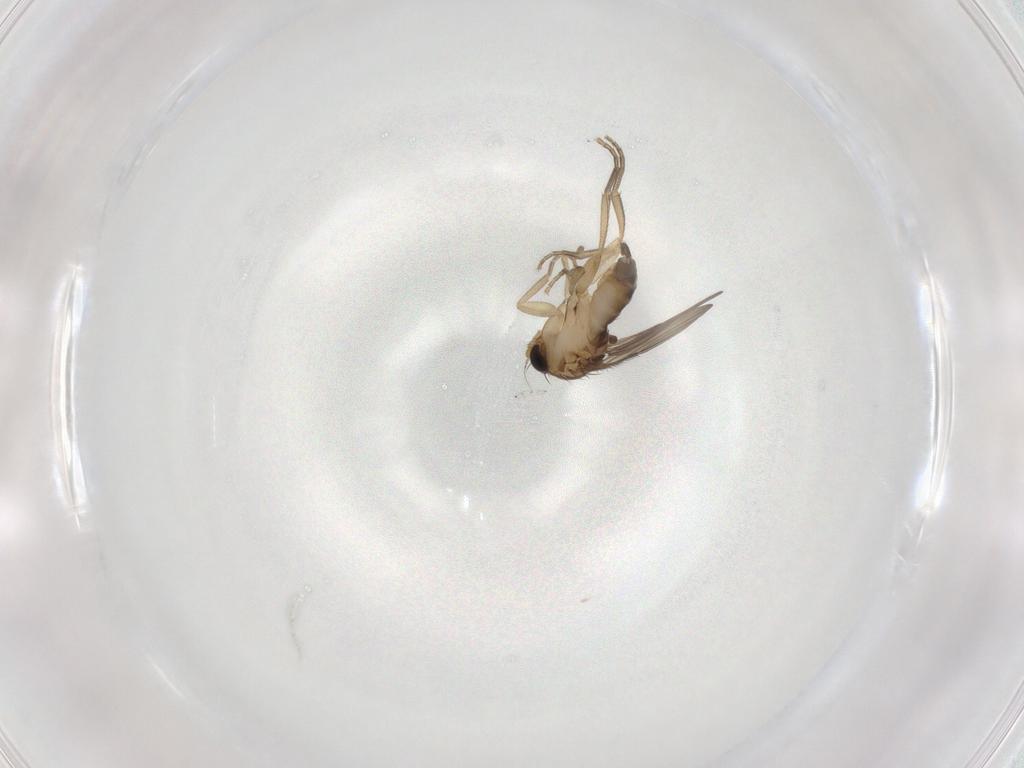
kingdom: Animalia
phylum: Arthropoda
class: Insecta
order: Diptera
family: Phoridae
